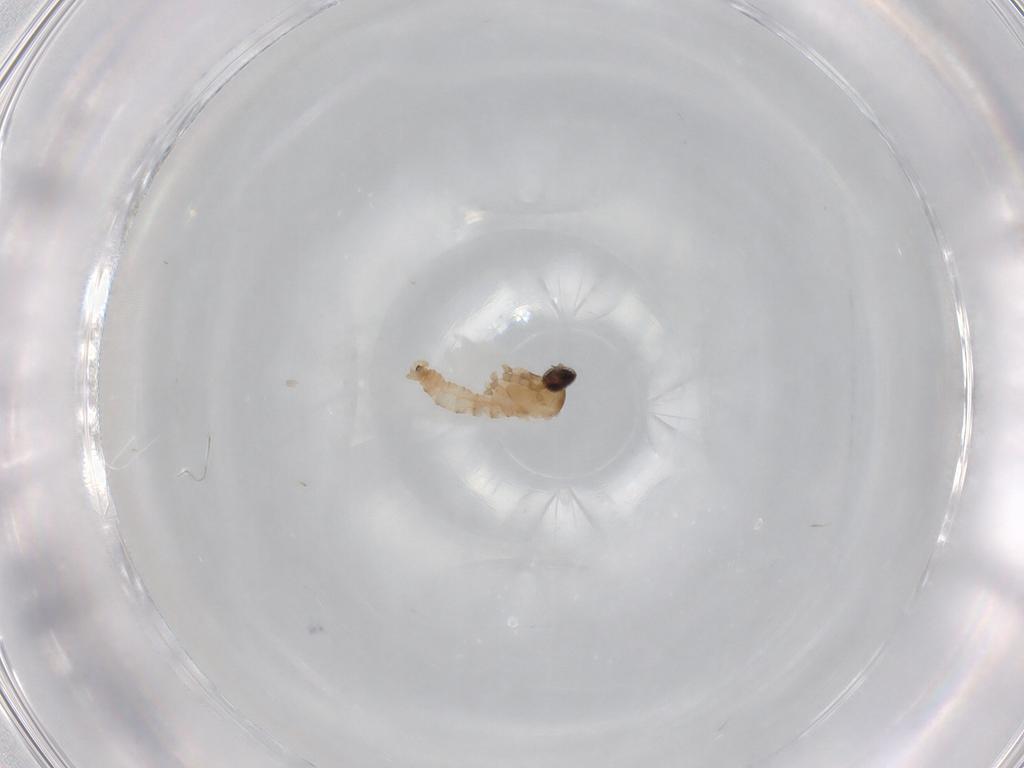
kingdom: Animalia
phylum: Arthropoda
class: Insecta
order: Diptera
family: Cecidomyiidae
